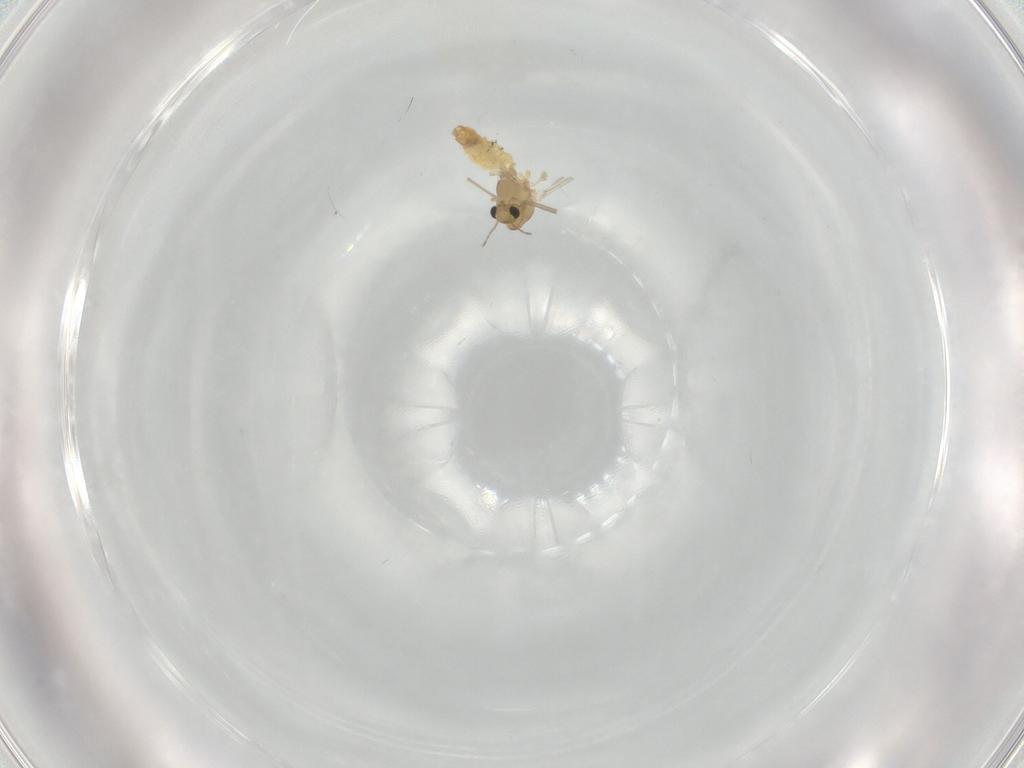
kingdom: Animalia
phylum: Arthropoda
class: Insecta
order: Diptera
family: Chironomidae
